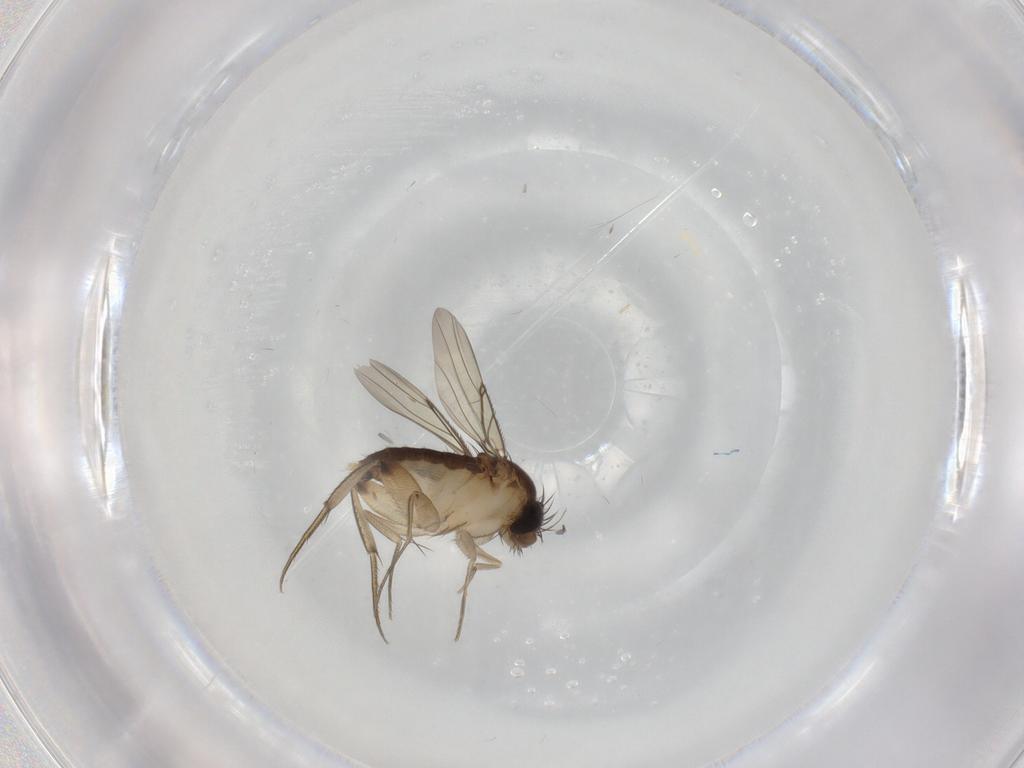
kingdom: Animalia
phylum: Arthropoda
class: Insecta
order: Diptera
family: Phoridae
